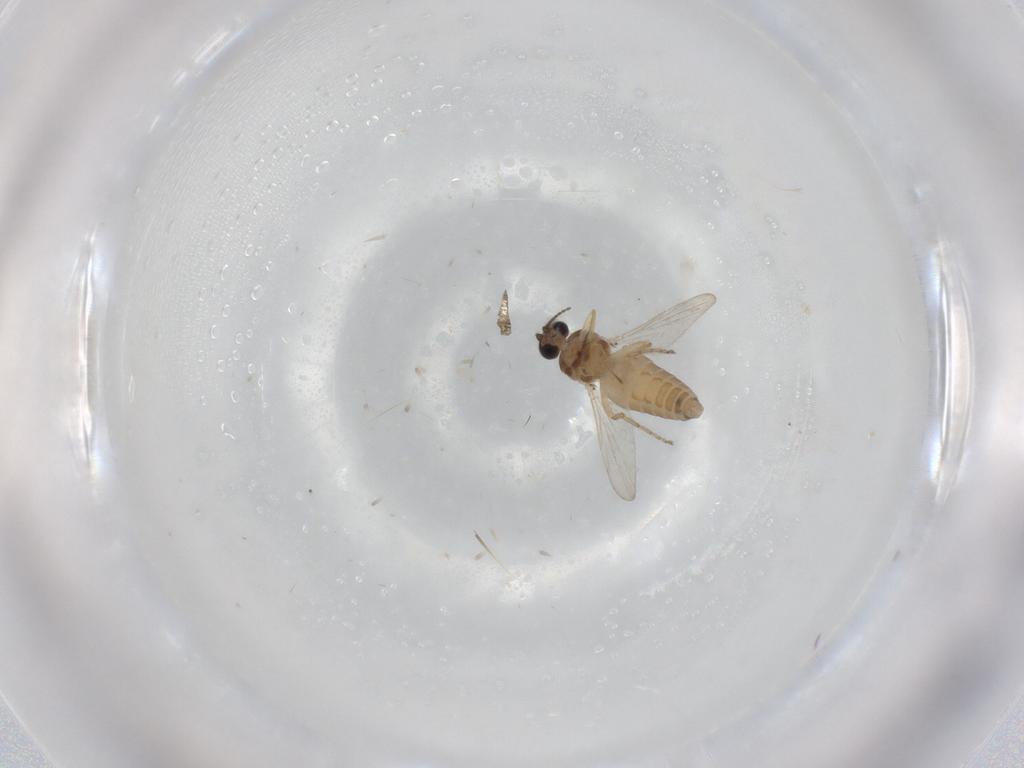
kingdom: Animalia
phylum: Arthropoda
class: Insecta
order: Diptera
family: Ceratopogonidae
